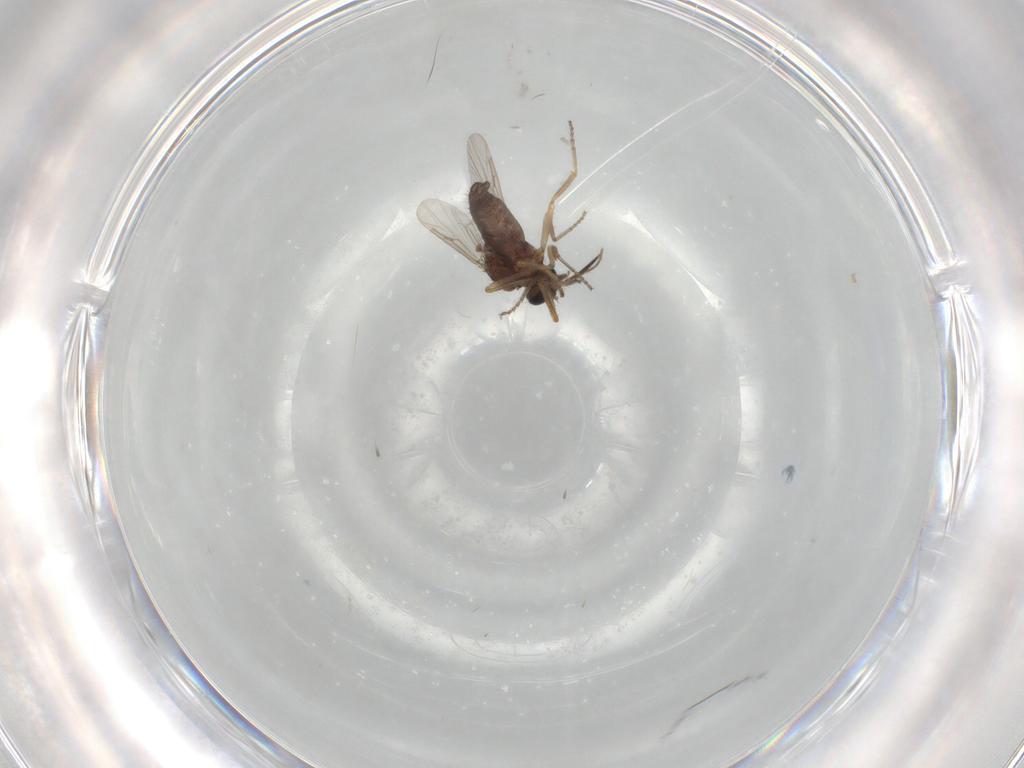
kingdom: Animalia
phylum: Arthropoda
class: Insecta
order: Diptera
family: Ceratopogonidae
